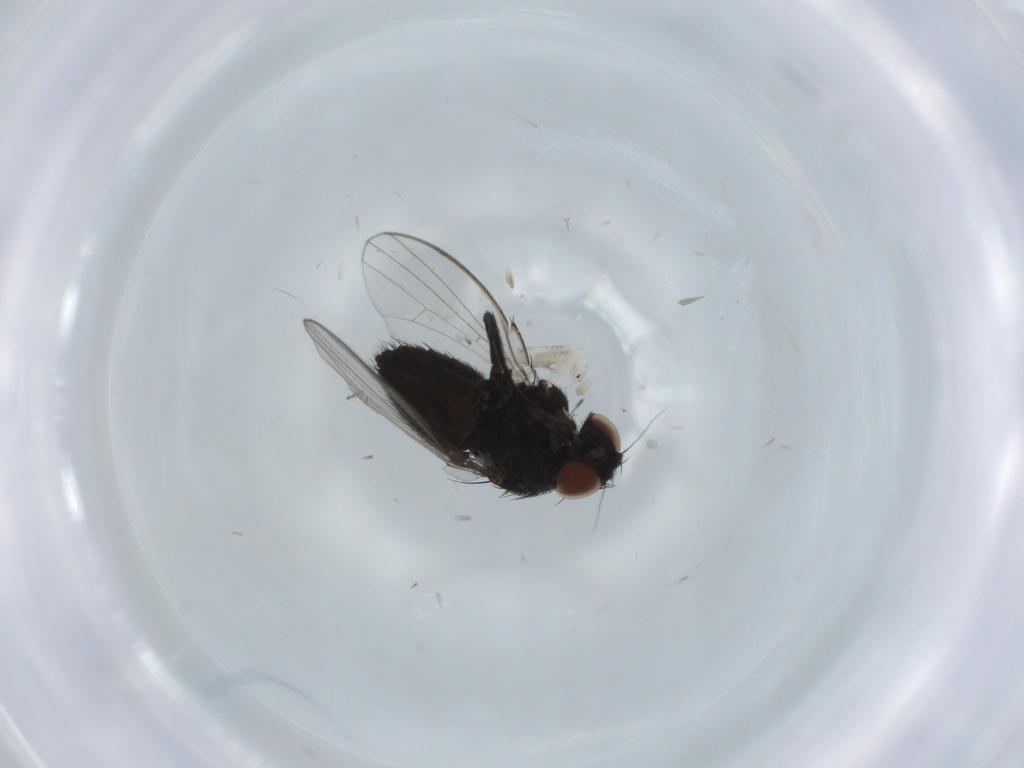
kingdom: Animalia
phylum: Arthropoda
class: Insecta
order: Diptera
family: Milichiidae
